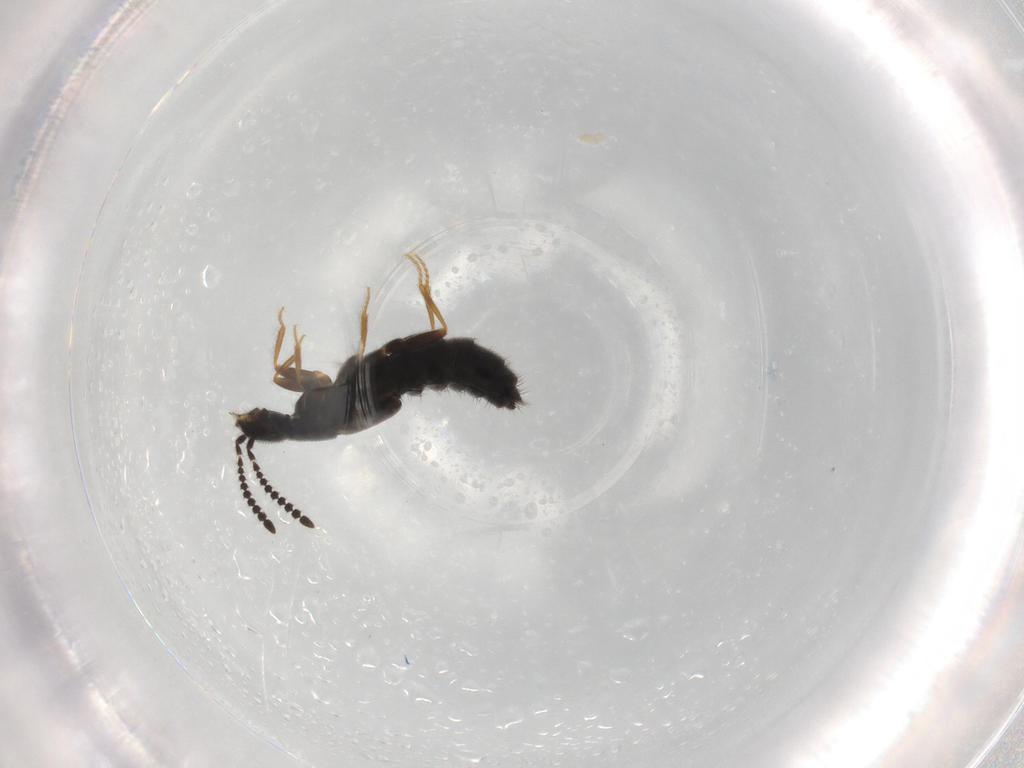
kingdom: Animalia
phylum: Arthropoda
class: Insecta
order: Coleoptera
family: Staphylinidae
